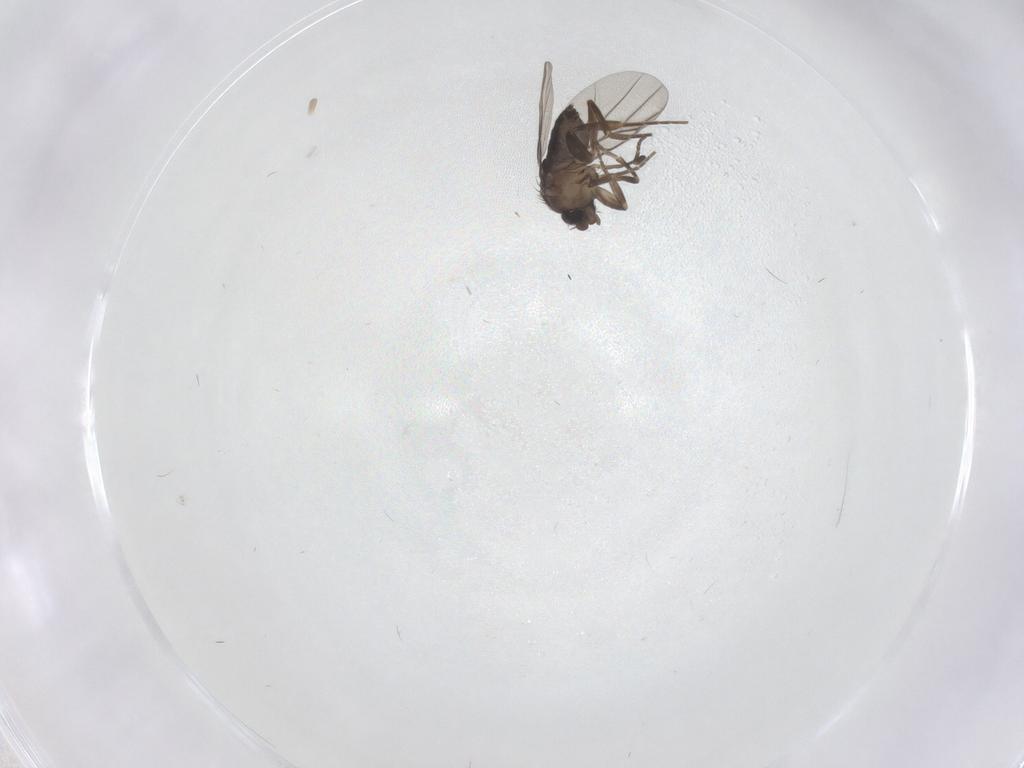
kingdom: Animalia
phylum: Arthropoda
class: Insecta
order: Diptera
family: Phoridae
